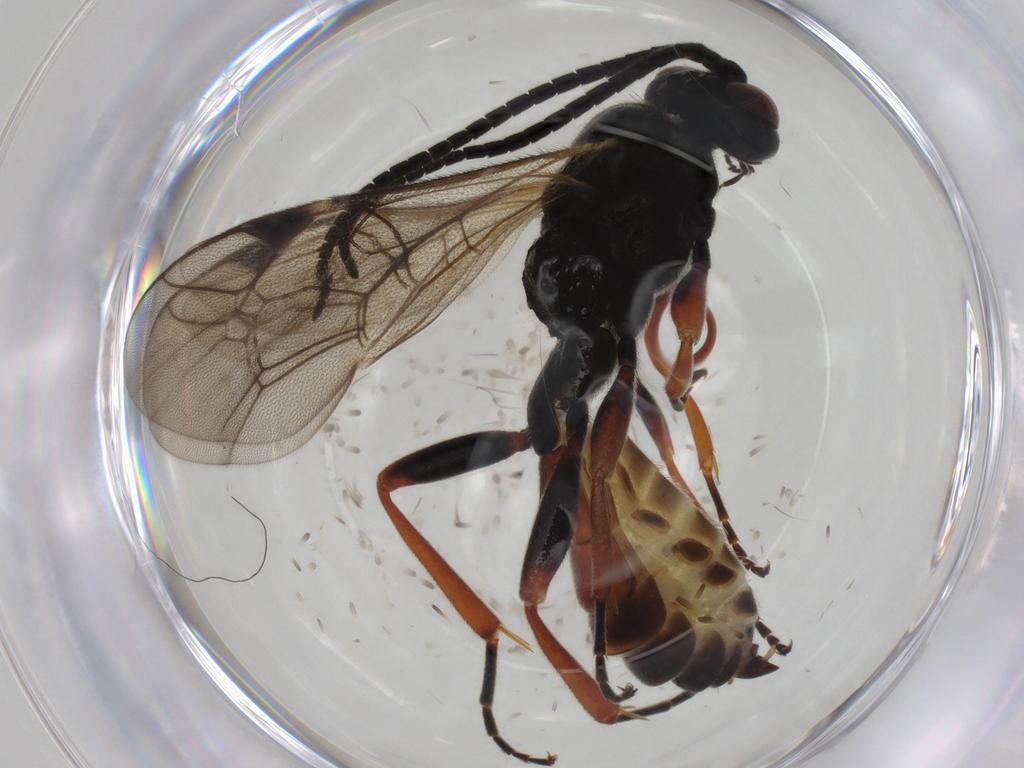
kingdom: Animalia
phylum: Arthropoda
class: Insecta
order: Hymenoptera
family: Ichneumonidae
